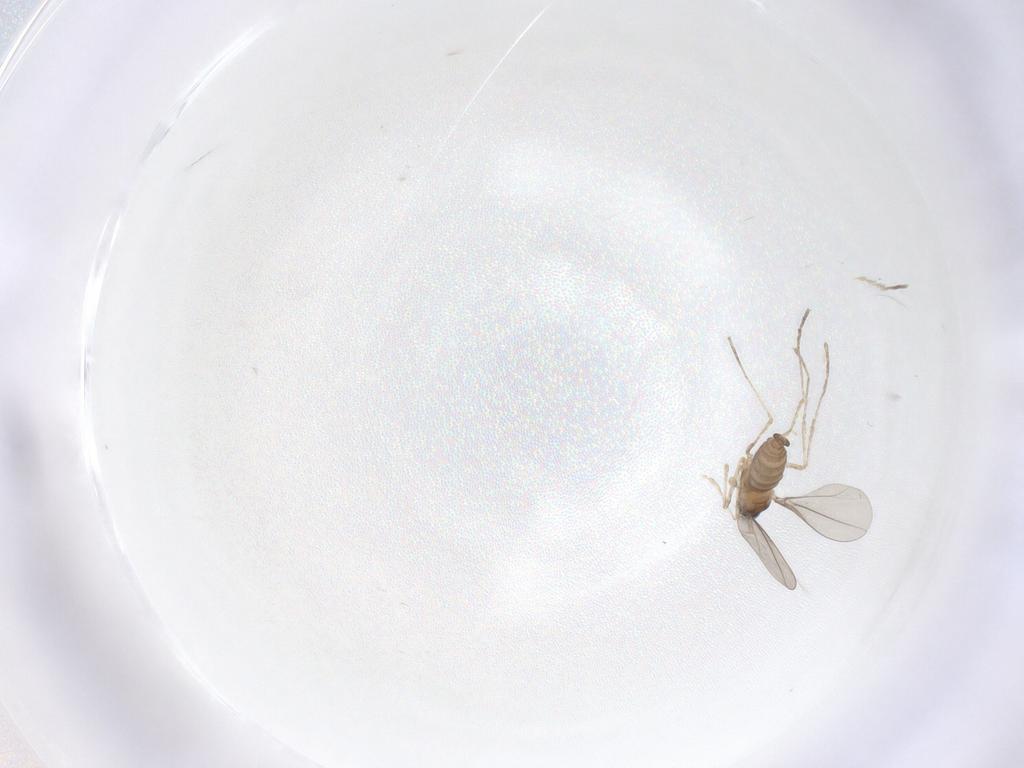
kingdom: Animalia
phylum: Arthropoda
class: Insecta
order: Diptera
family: Cecidomyiidae
